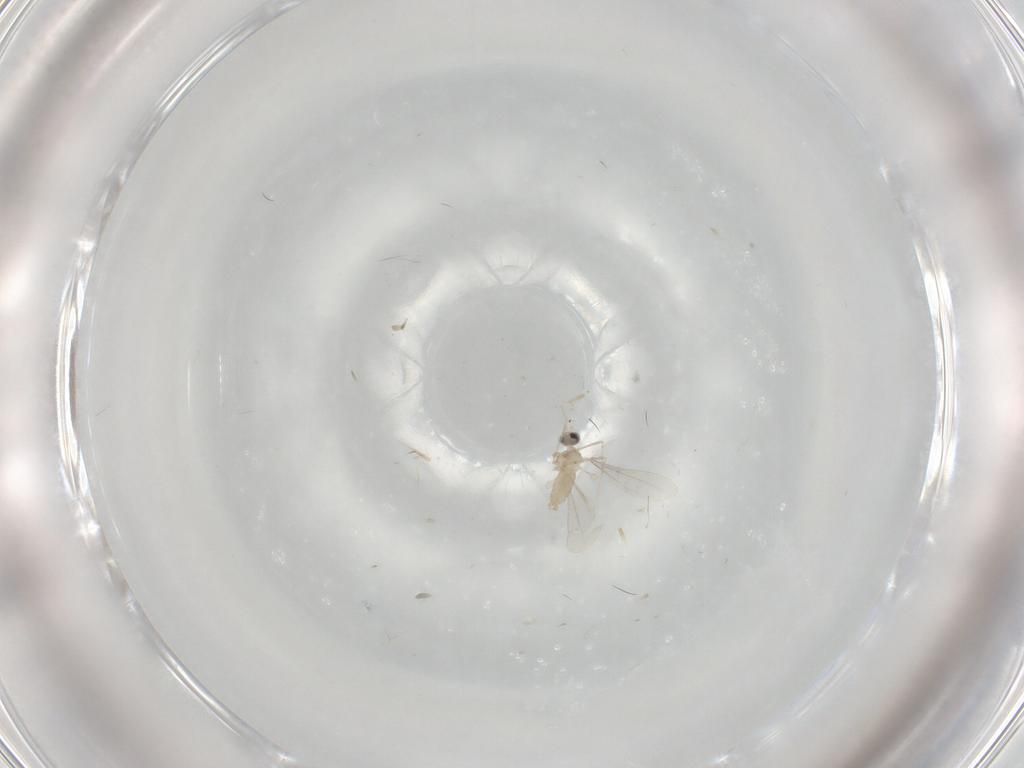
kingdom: Animalia
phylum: Arthropoda
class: Insecta
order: Diptera
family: Cecidomyiidae
